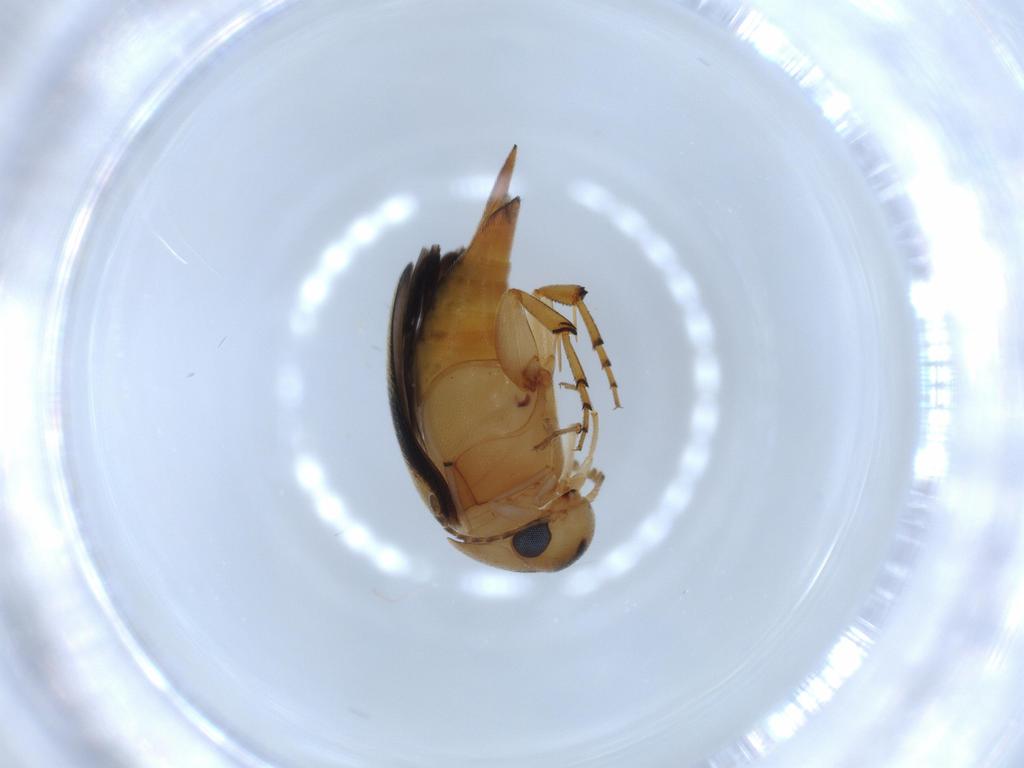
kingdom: Animalia
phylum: Arthropoda
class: Insecta
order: Coleoptera
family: Mordellidae
